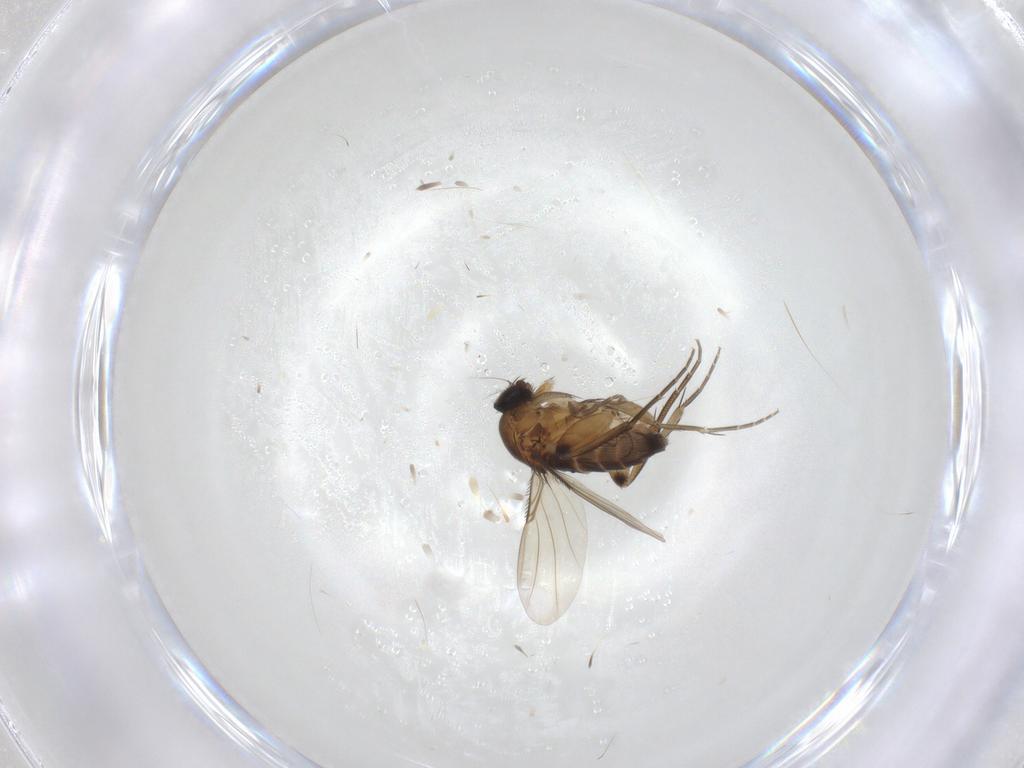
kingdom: Animalia
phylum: Arthropoda
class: Insecta
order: Diptera
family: Phoridae
